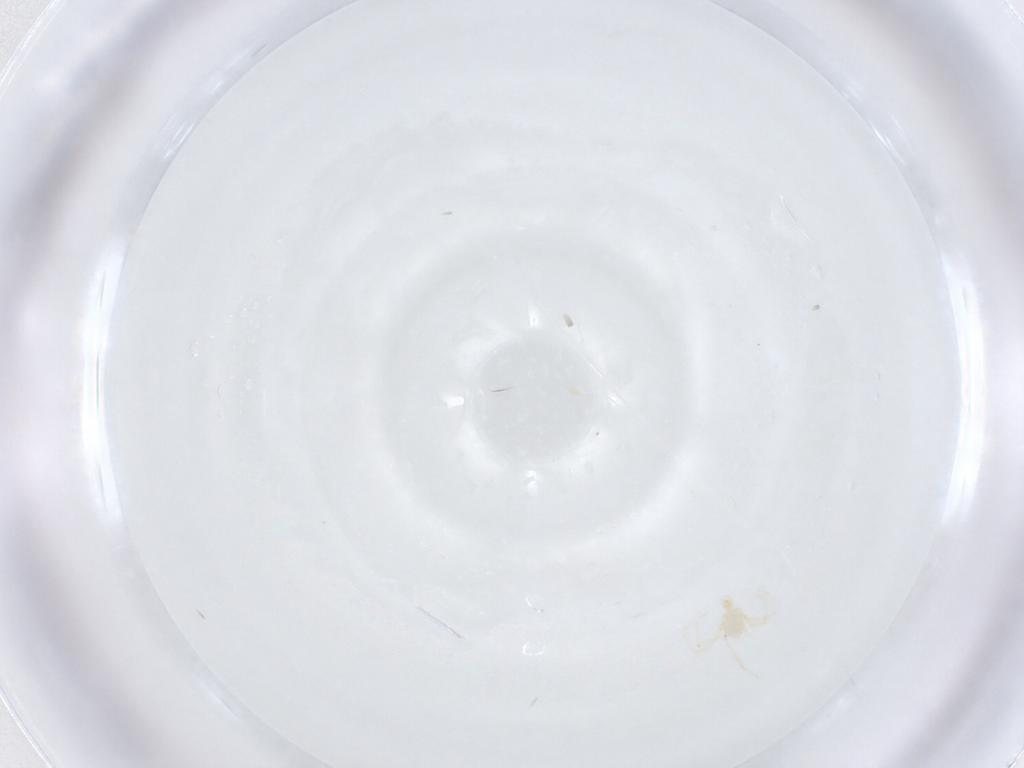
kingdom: Animalia
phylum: Arthropoda
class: Arachnida
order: Trombidiformes
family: Erythraeidae
